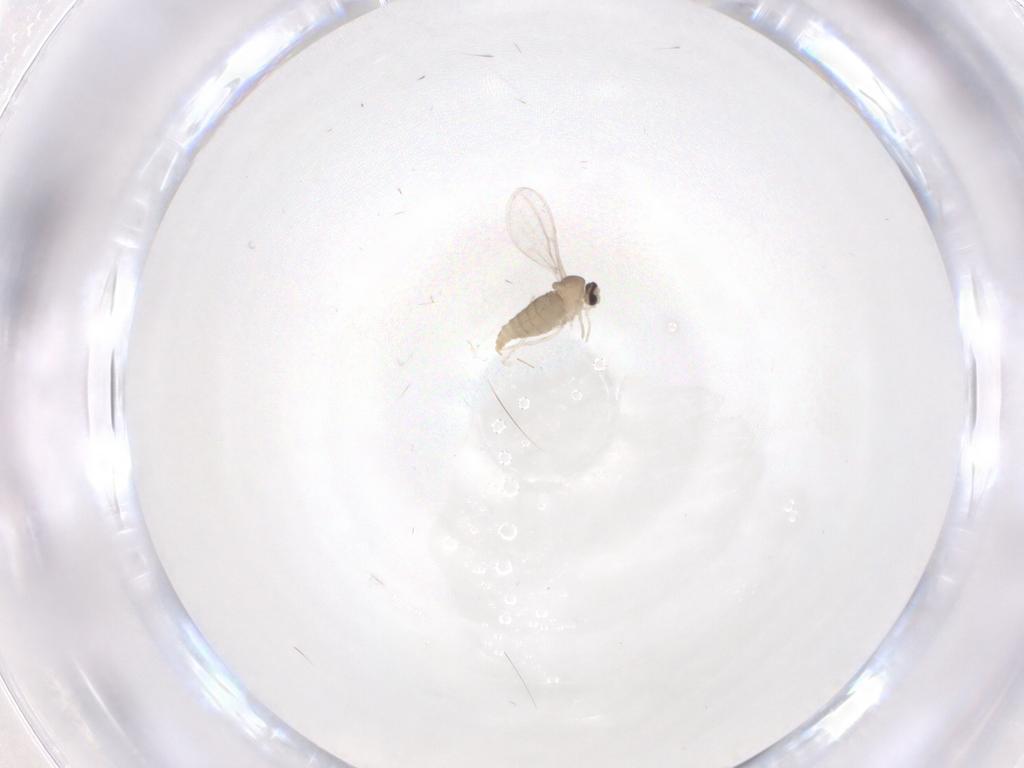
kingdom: Animalia
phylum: Arthropoda
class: Insecta
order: Diptera
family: Cecidomyiidae
